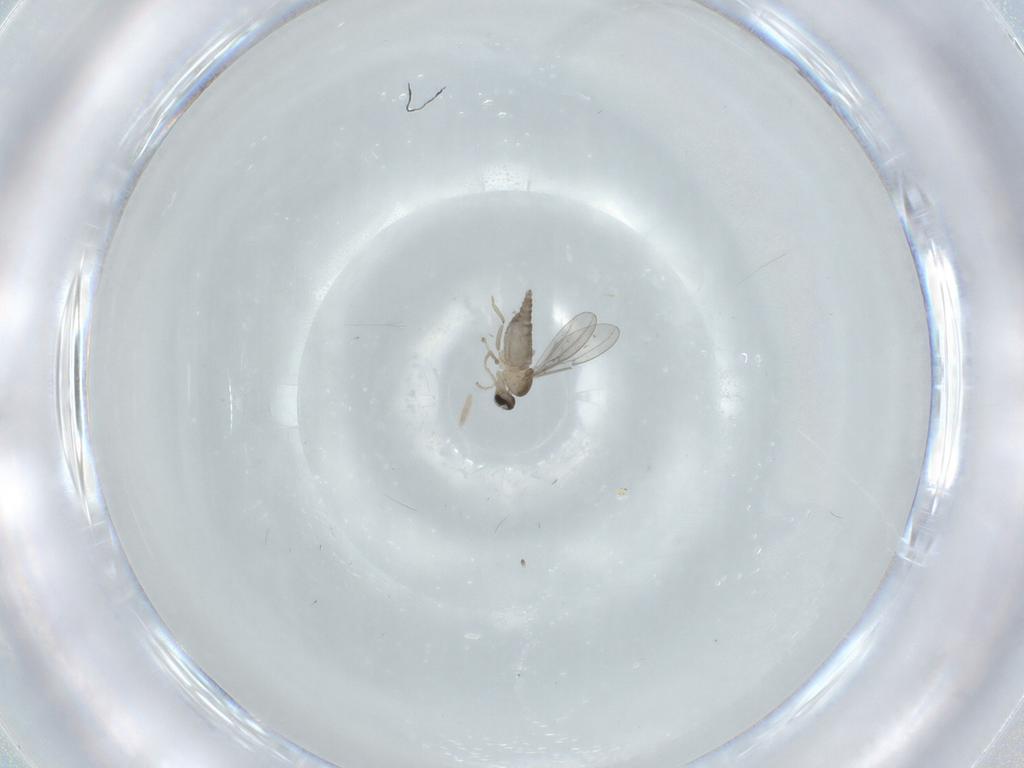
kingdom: Animalia
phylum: Arthropoda
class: Insecta
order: Diptera
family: Cecidomyiidae
